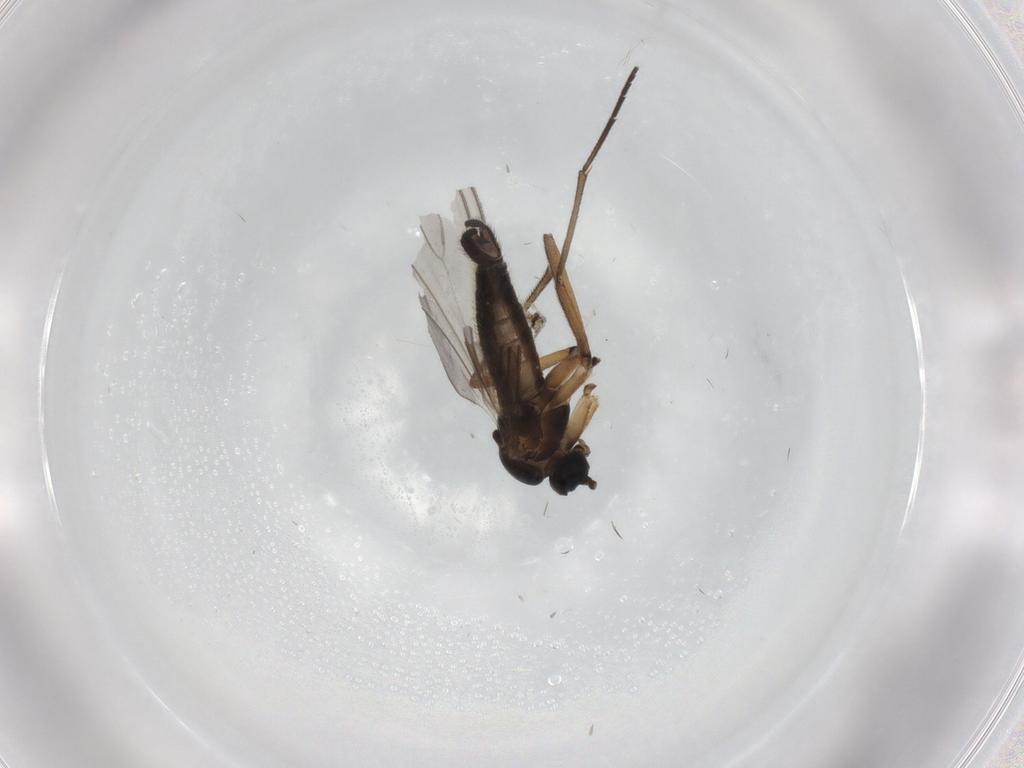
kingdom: Animalia
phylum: Arthropoda
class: Insecta
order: Diptera
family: Sciaridae
